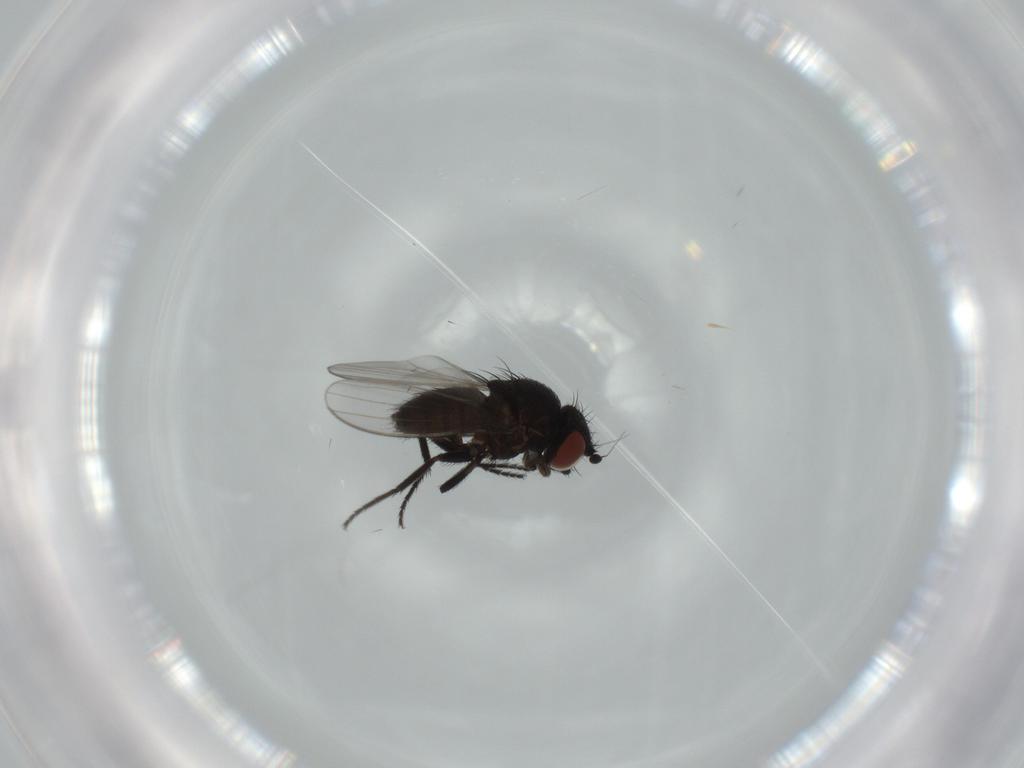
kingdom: Animalia
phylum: Arthropoda
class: Insecta
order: Diptera
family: Milichiidae
